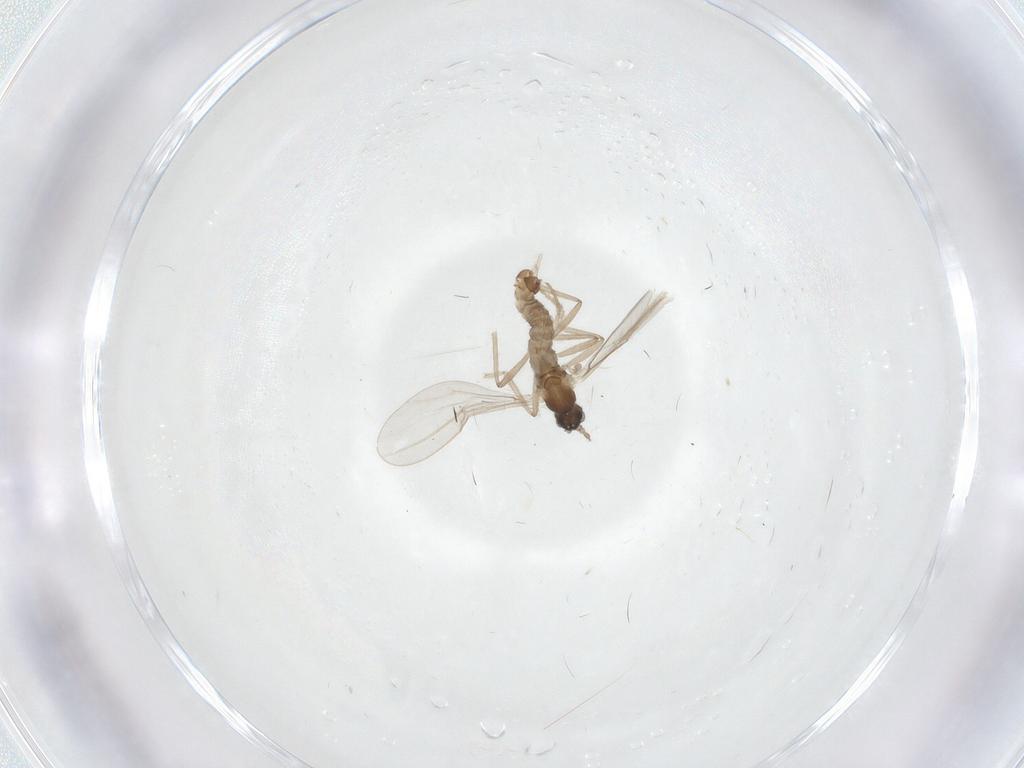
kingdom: Animalia
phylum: Arthropoda
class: Insecta
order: Diptera
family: Cecidomyiidae
